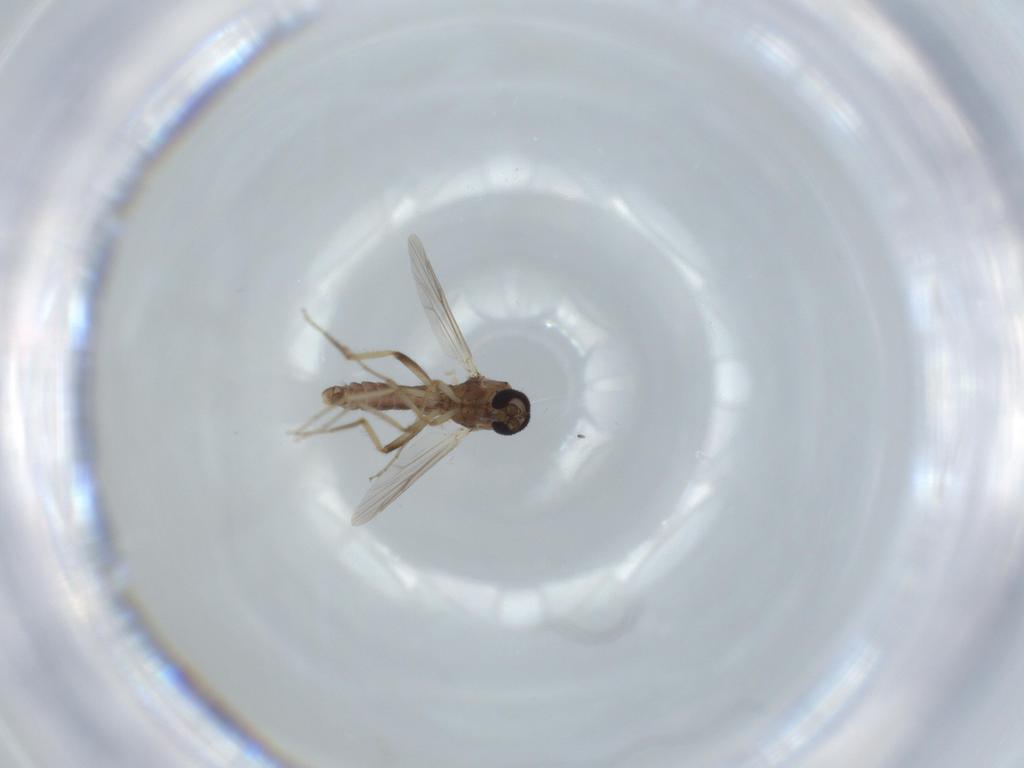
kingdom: Animalia
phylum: Arthropoda
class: Insecta
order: Diptera
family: Ceratopogonidae
